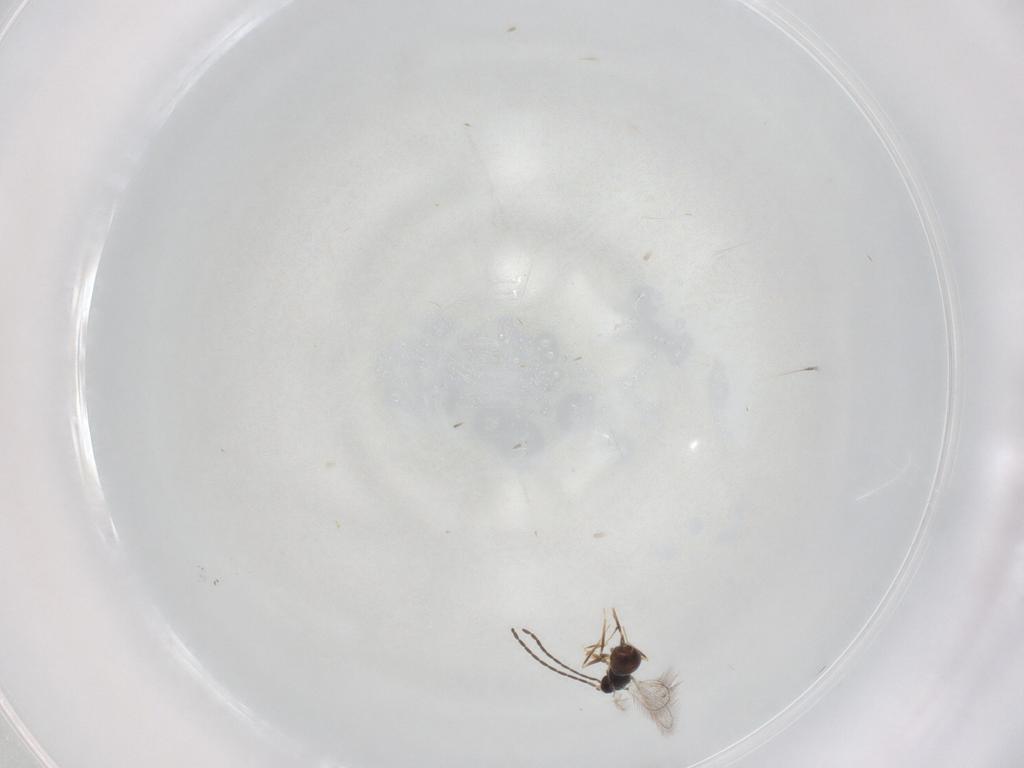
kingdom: Animalia
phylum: Arthropoda
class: Insecta
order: Hymenoptera
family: Mymaridae
